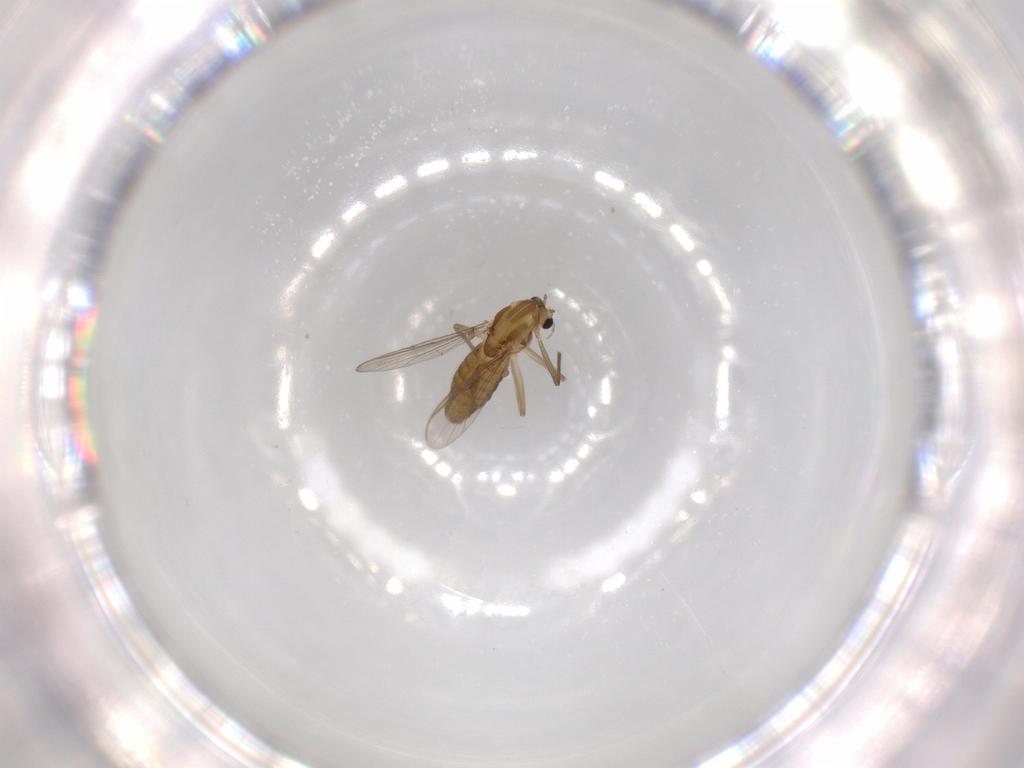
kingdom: Animalia
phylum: Arthropoda
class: Insecta
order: Diptera
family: Chironomidae
